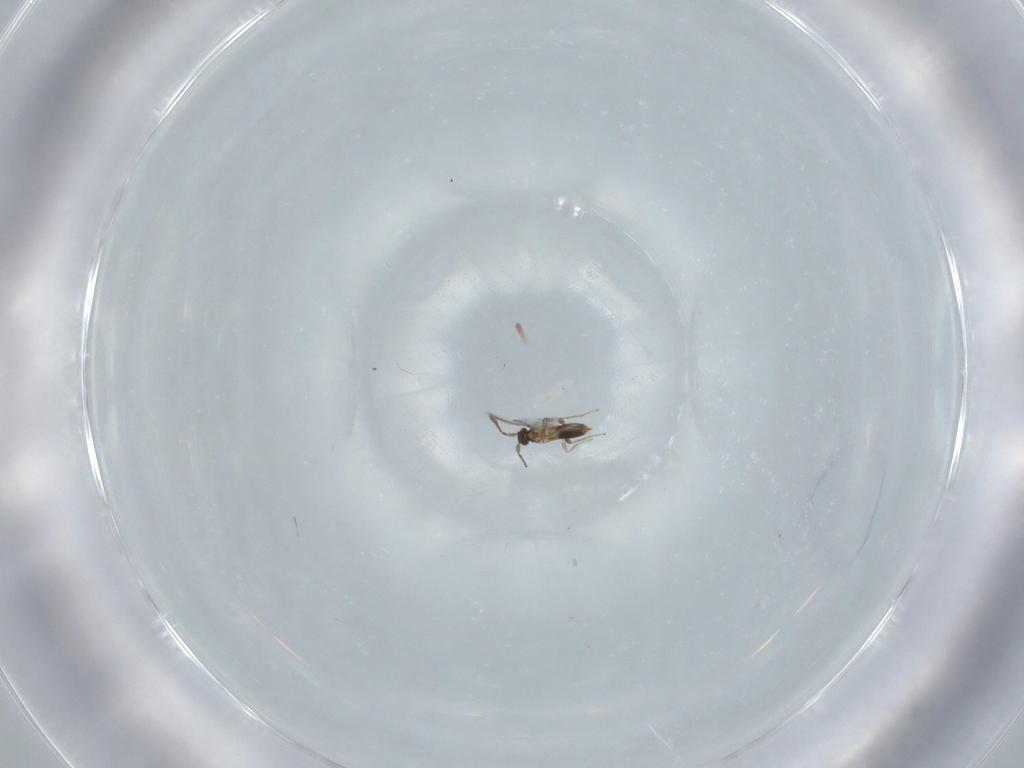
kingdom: Animalia
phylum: Arthropoda
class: Insecta
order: Hymenoptera
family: Mymaridae
